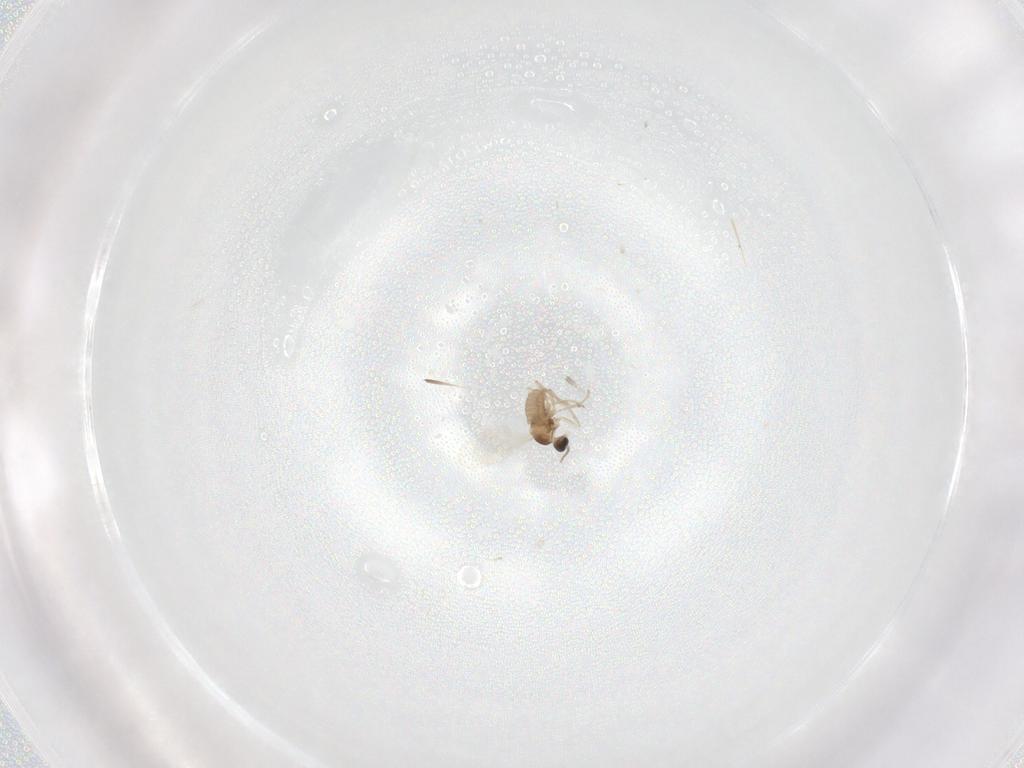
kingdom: Animalia
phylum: Arthropoda
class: Insecta
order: Diptera
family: Cecidomyiidae
